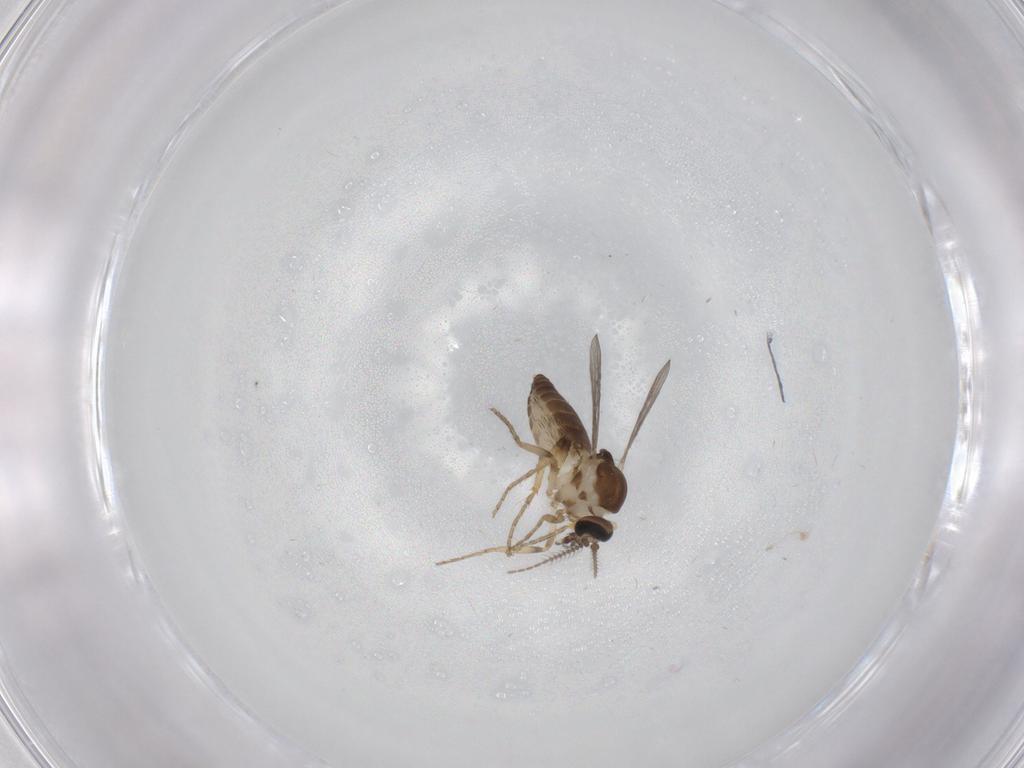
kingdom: Animalia
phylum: Arthropoda
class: Insecta
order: Diptera
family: Ceratopogonidae
